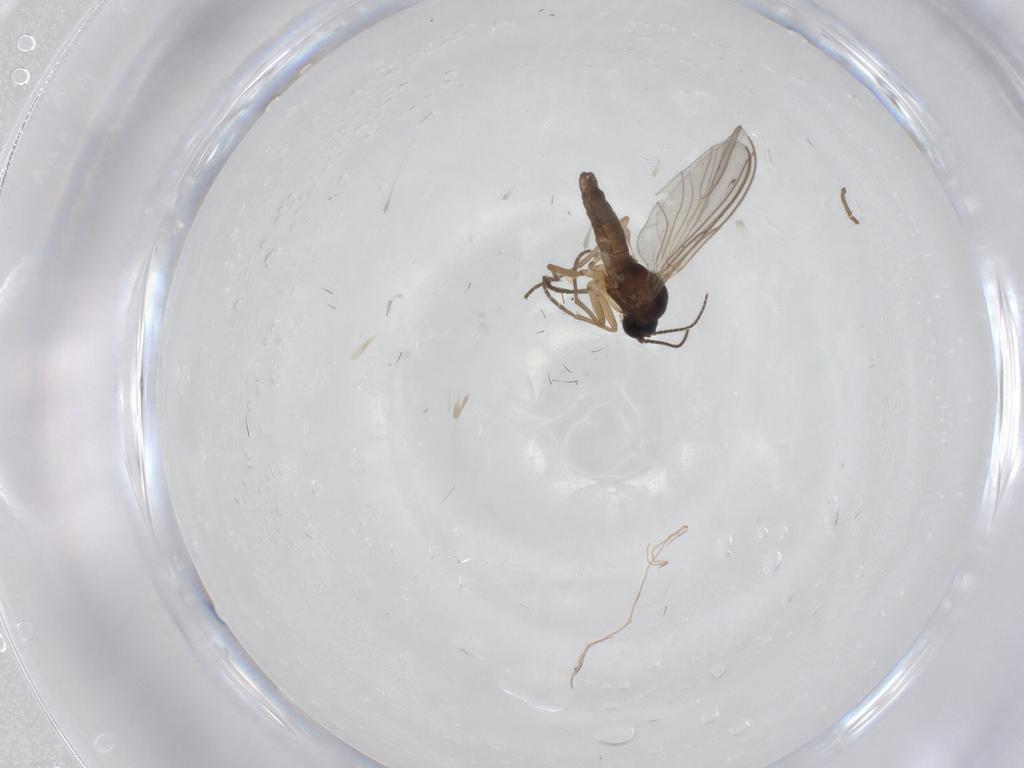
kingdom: Animalia
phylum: Arthropoda
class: Insecta
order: Diptera
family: Sciaridae
